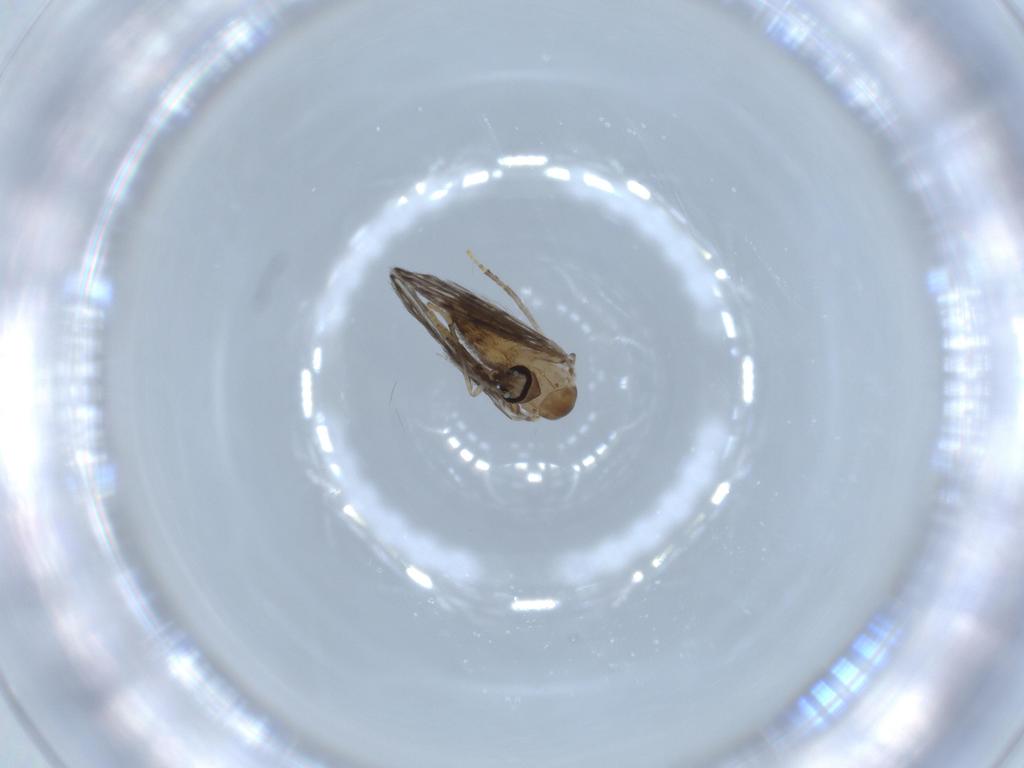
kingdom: Animalia
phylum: Arthropoda
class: Insecta
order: Diptera
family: Psychodidae
